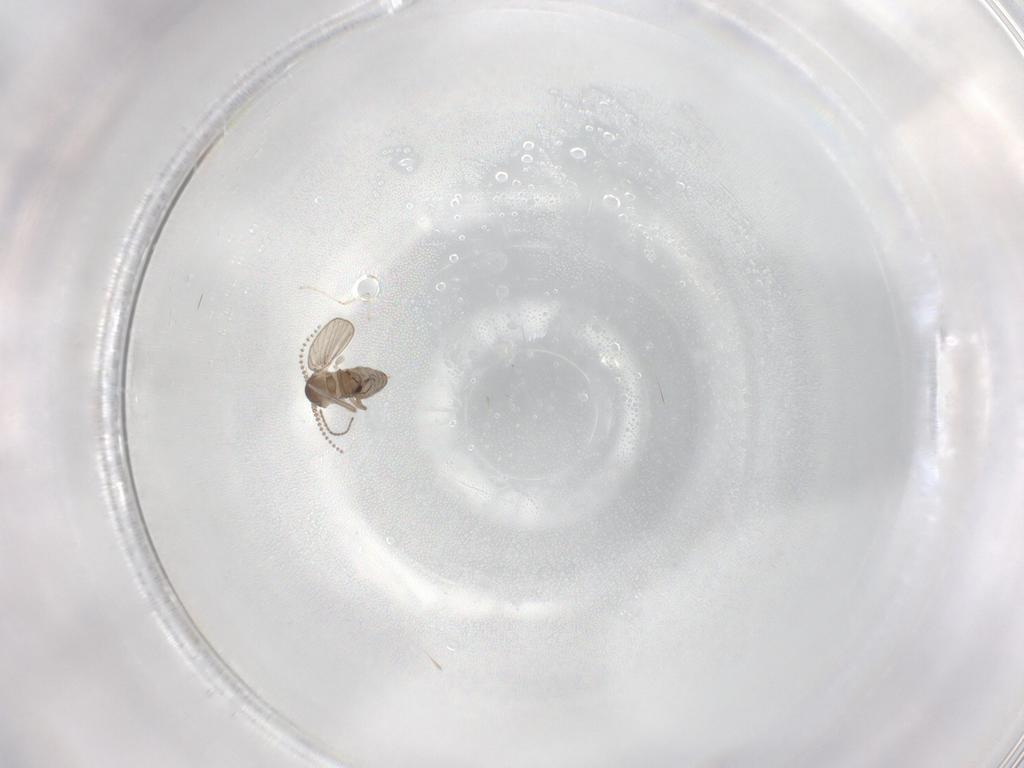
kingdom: Animalia
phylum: Arthropoda
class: Insecta
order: Diptera
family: Psychodidae
